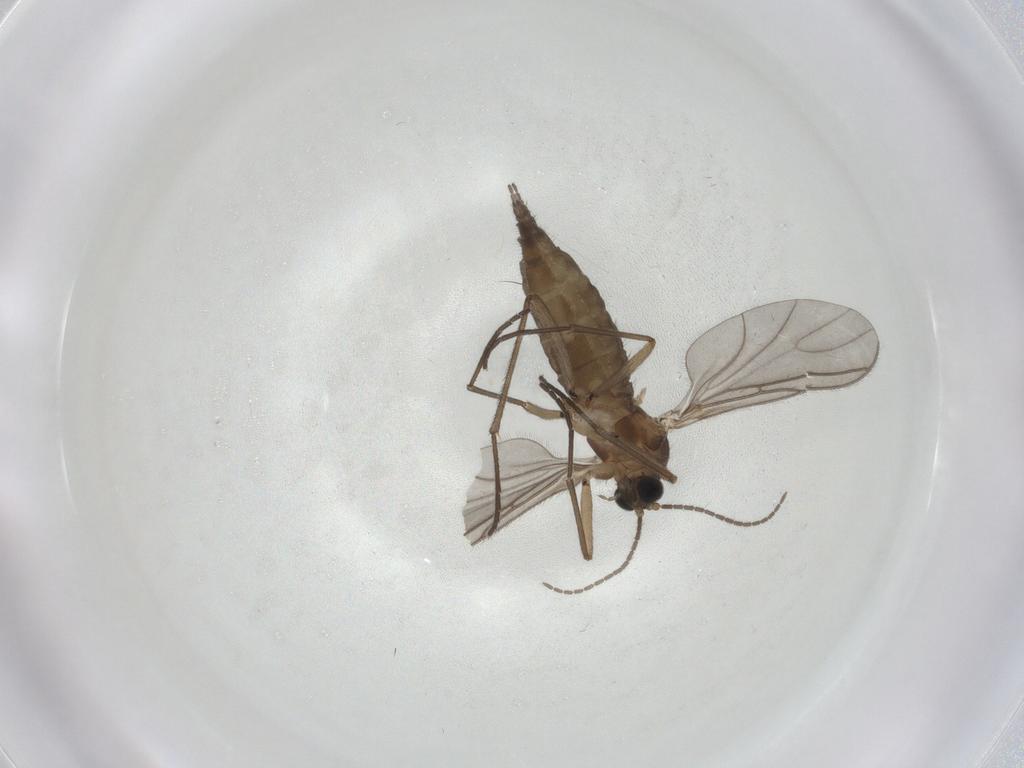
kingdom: Animalia
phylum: Arthropoda
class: Insecta
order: Diptera
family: Chironomidae
